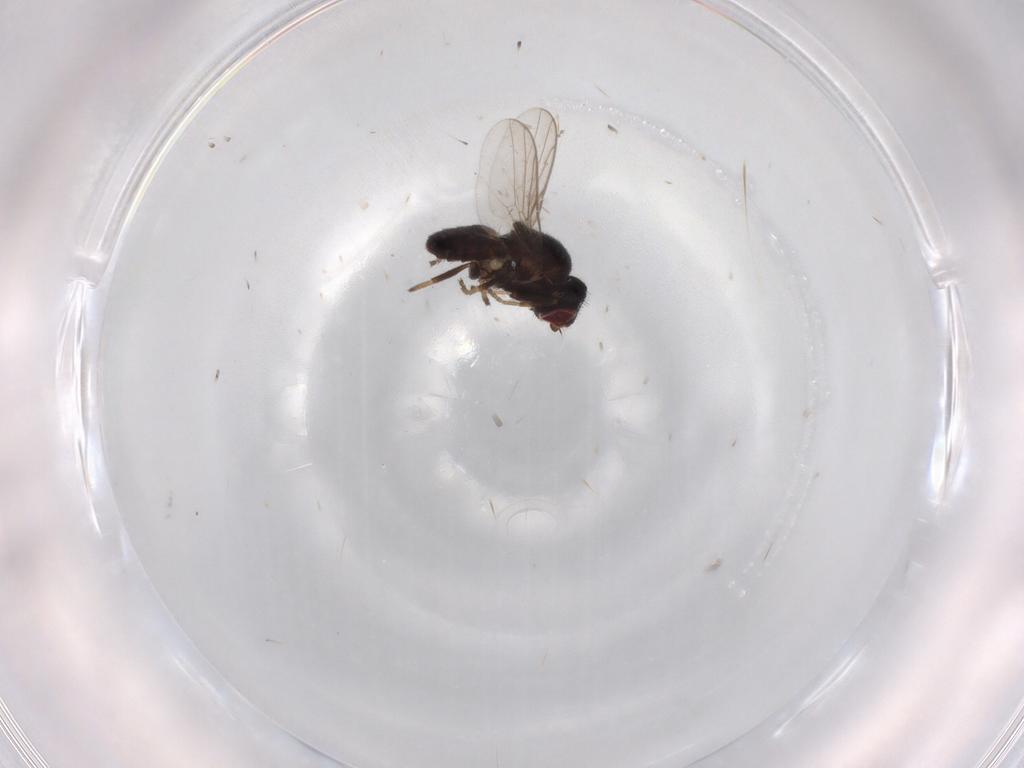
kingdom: Animalia
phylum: Arthropoda
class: Insecta
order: Diptera
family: Chloropidae
